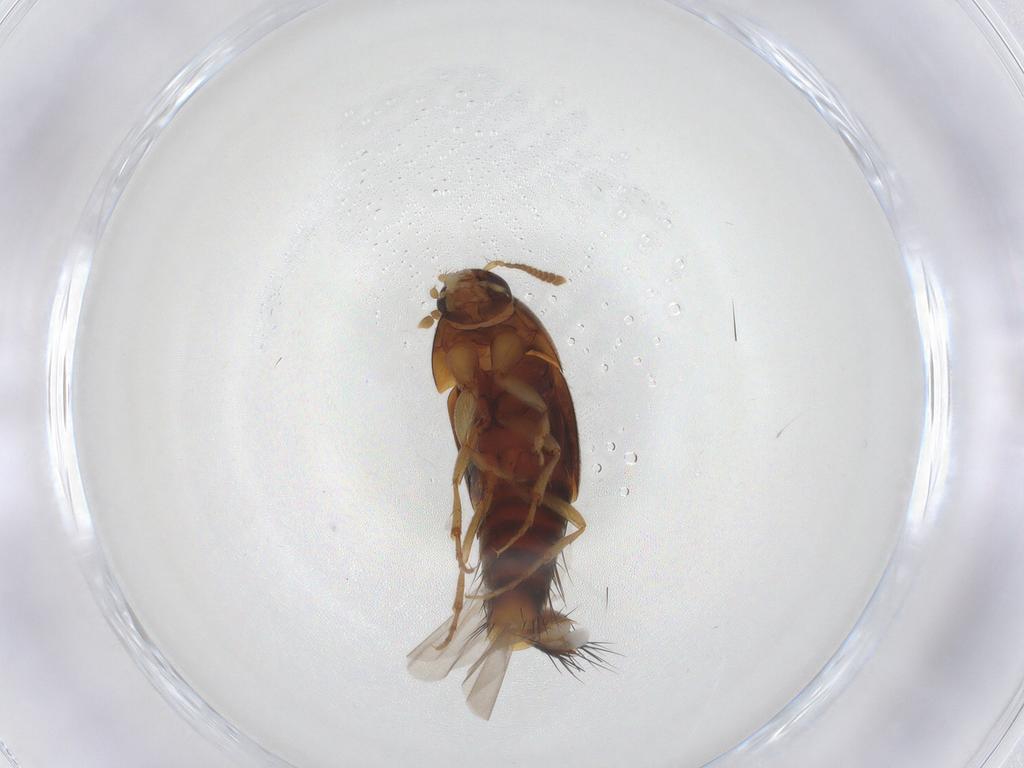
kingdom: Animalia
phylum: Arthropoda
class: Insecta
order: Coleoptera
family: Staphylinidae
